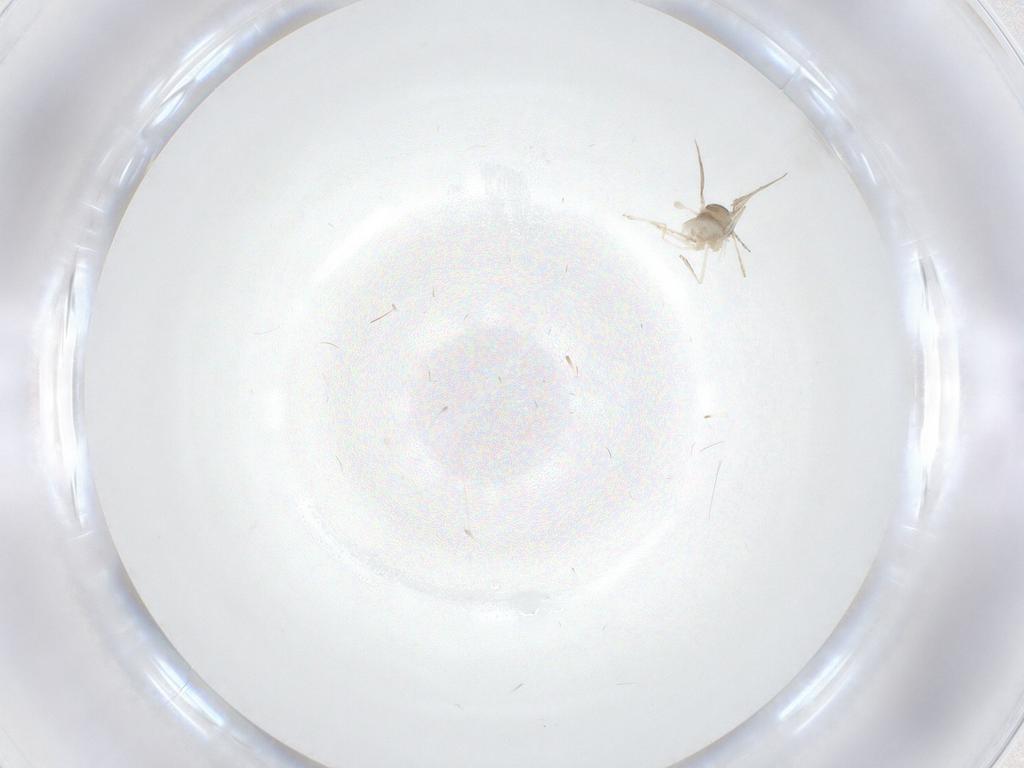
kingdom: Animalia
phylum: Arthropoda
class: Insecta
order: Diptera
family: Cecidomyiidae
